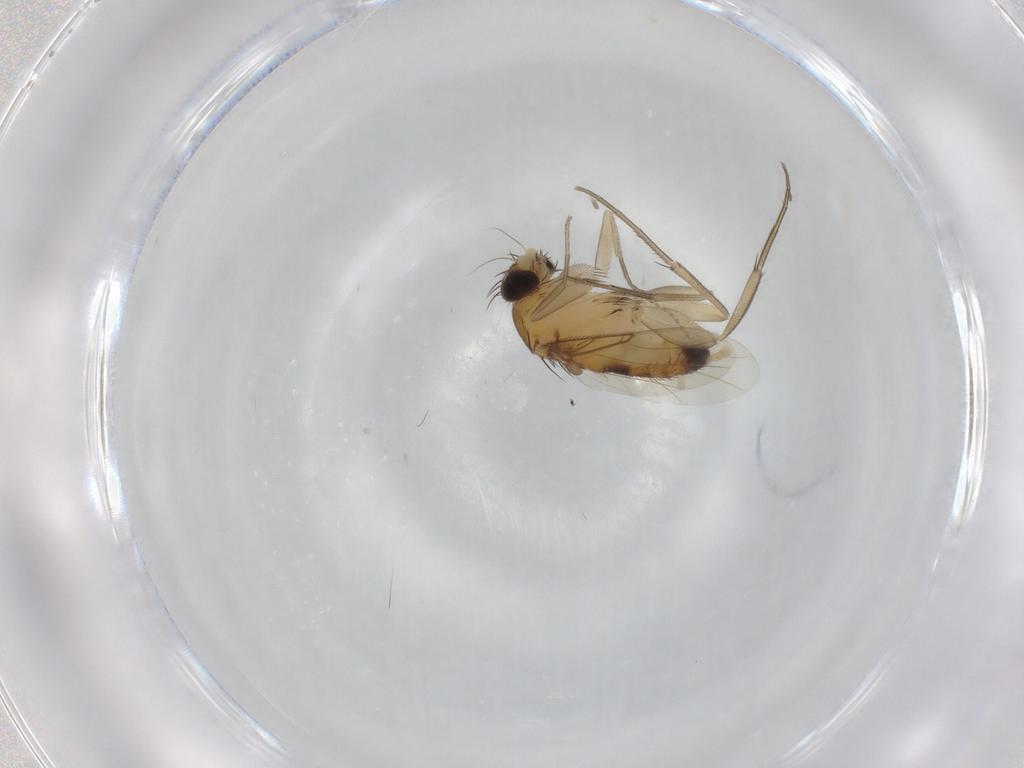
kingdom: Animalia
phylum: Arthropoda
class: Insecta
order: Diptera
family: Phoridae
